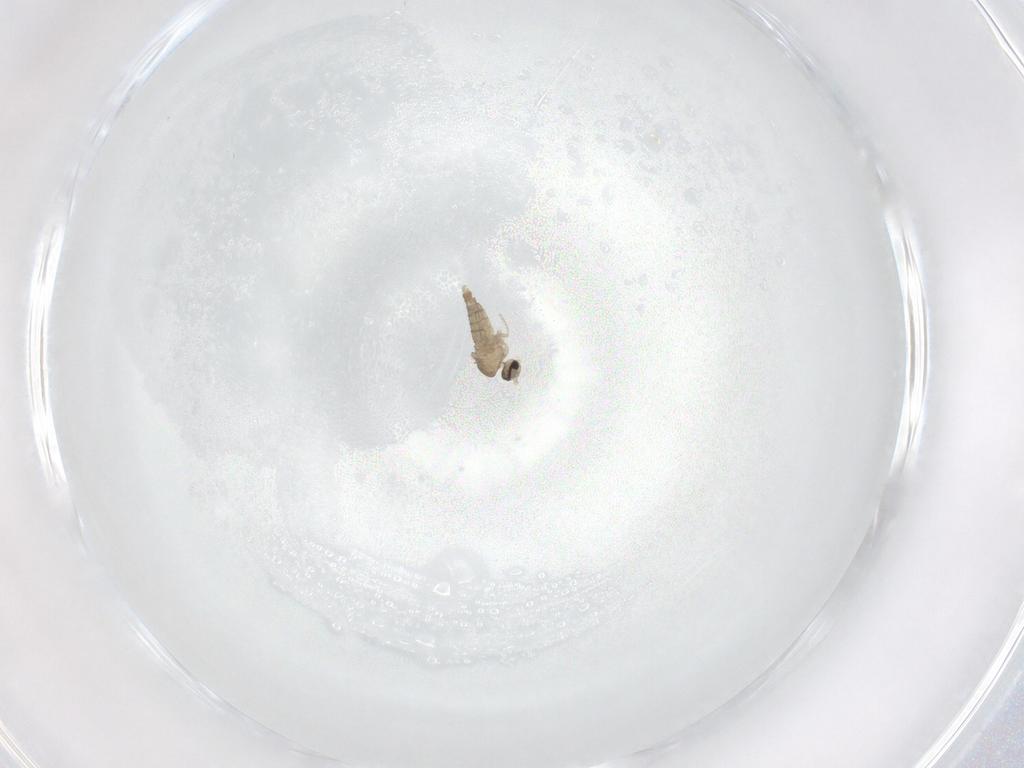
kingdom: Animalia
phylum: Arthropoda
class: Insecta
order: Diptera
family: Cecidomyiidae
